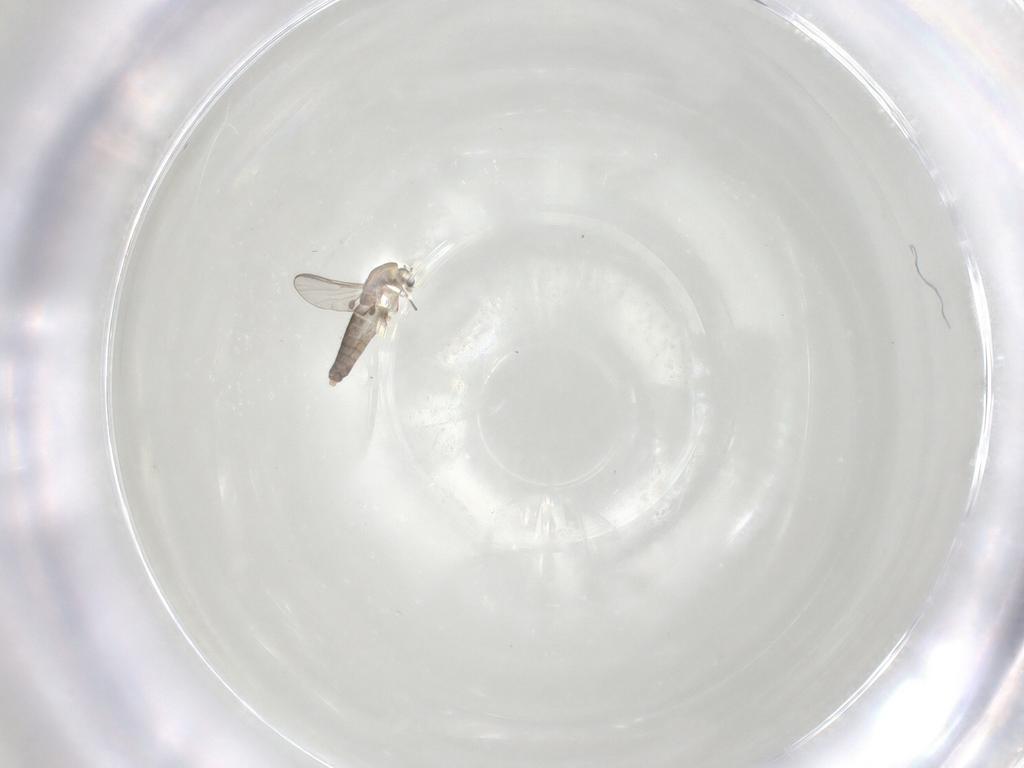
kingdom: Animalia
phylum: Arthropoda
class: Insecta
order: Diptera
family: Chironomidae
